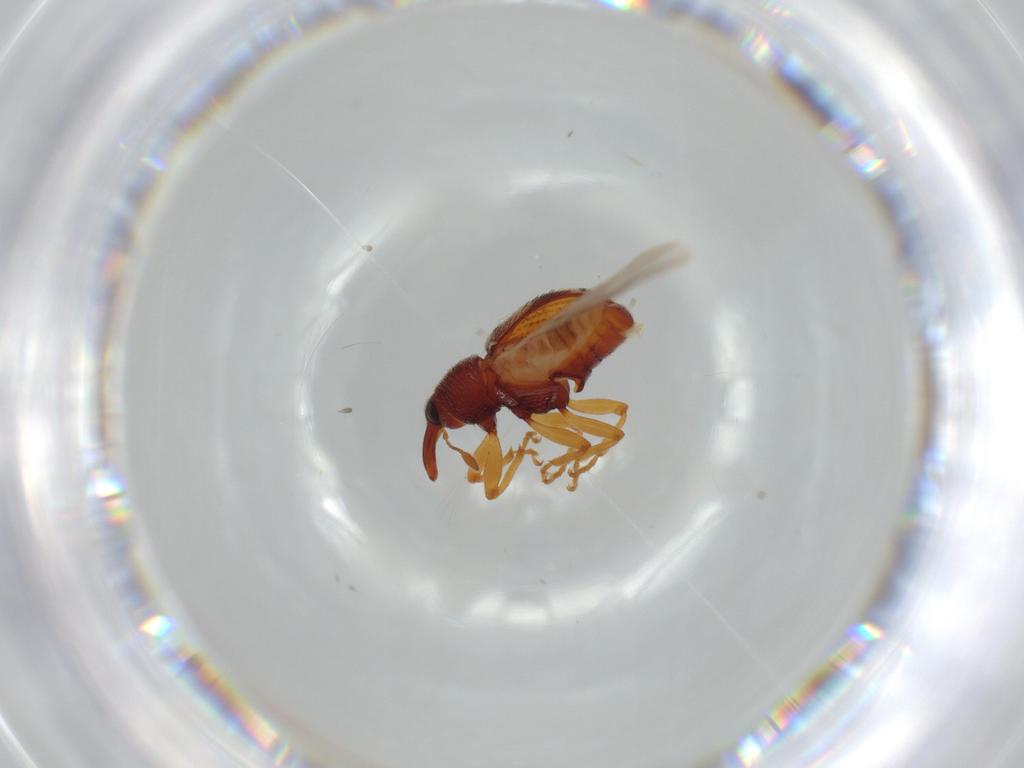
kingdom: Animalia
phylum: Arthropoda
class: Insecta
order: Coleoptera
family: Curculionidae
